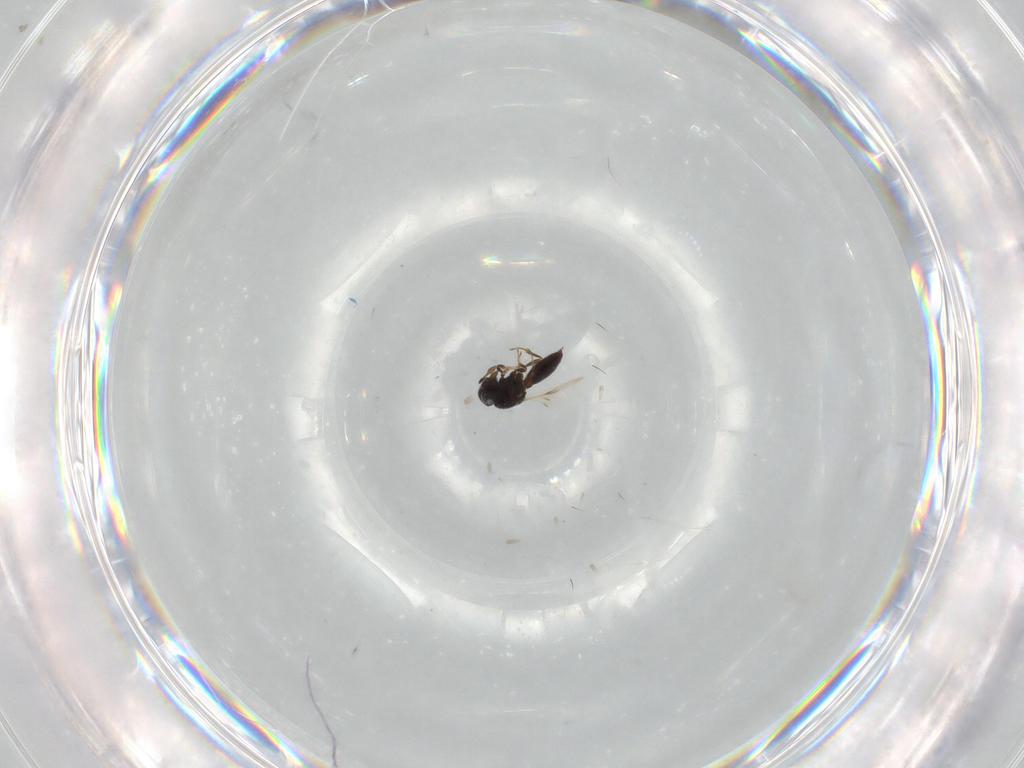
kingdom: Animalia
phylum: Arthropoda
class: Insecta
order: Hymenoptera
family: Scelionidae
